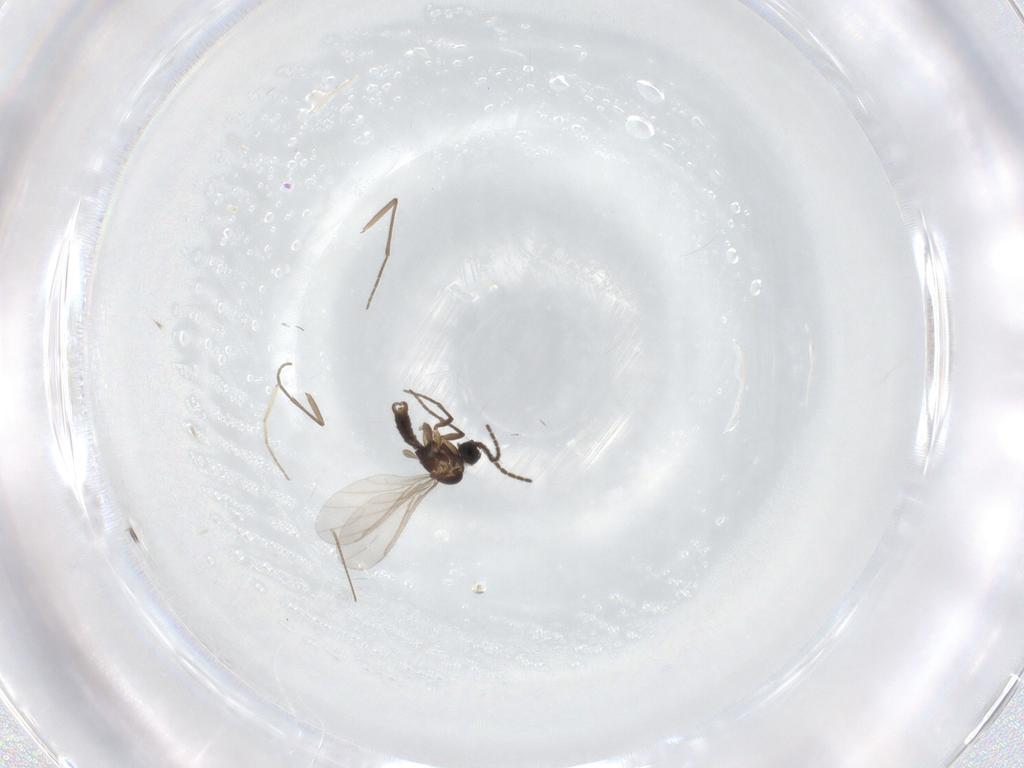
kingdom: Animalia
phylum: Arthropoda
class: Insecta
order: Diptera
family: Sciaridae
